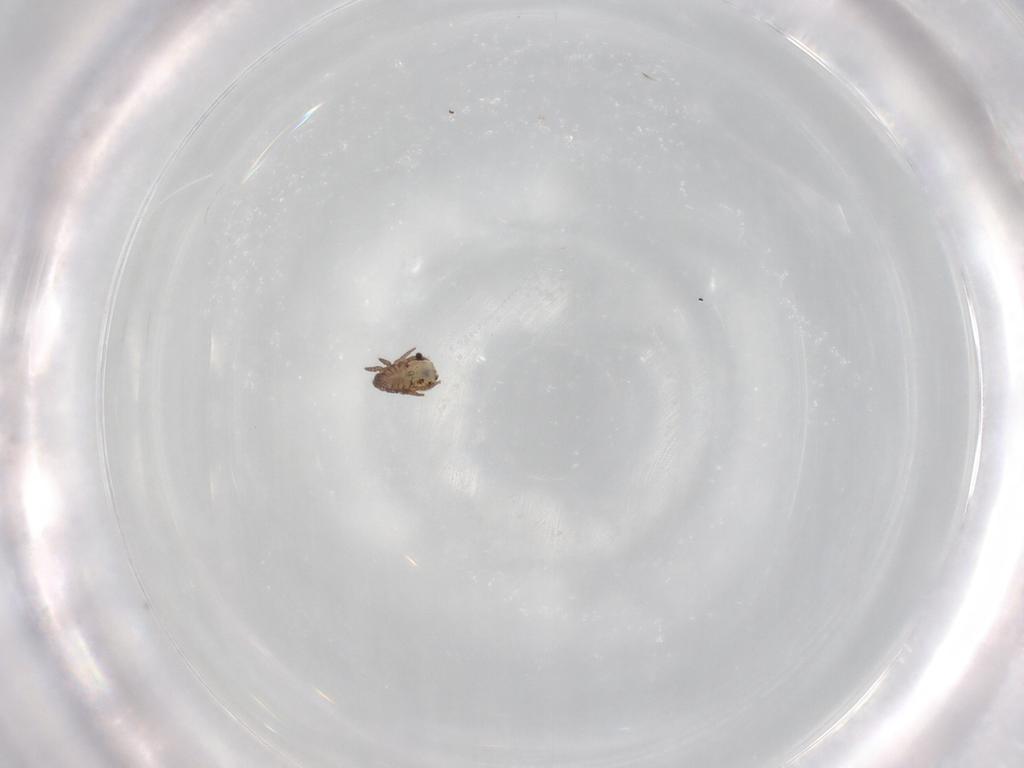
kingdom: Animalia
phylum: Arthropoda
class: Arachnida
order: Sarcoptiformes
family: Crotoniidae
